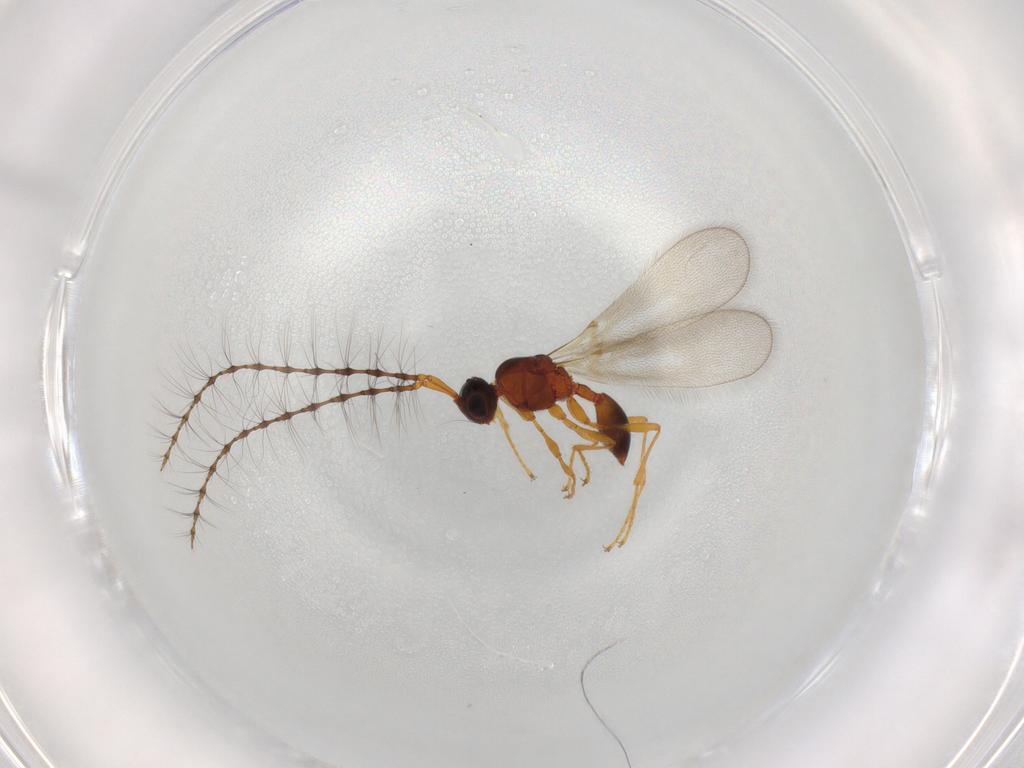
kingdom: Animalia
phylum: Arthropoda
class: Insecta
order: Hymenoptera
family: Diapriidae
